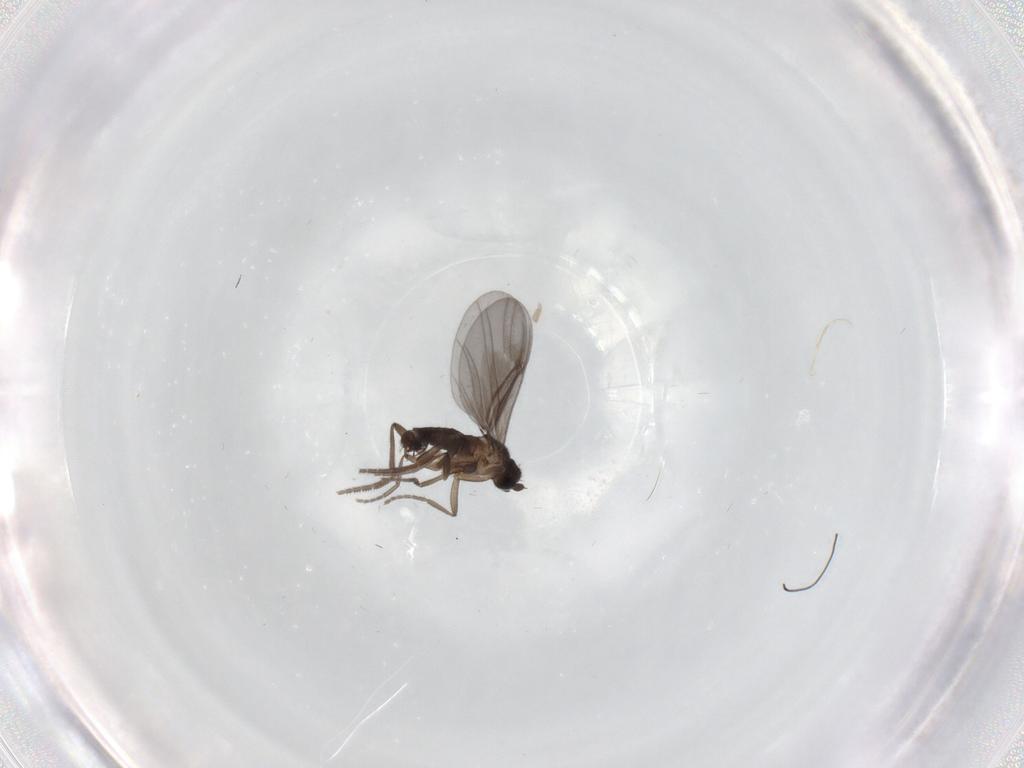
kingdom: Animalia
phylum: Arthropoda
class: Insecta
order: Diptera
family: Phoridae
